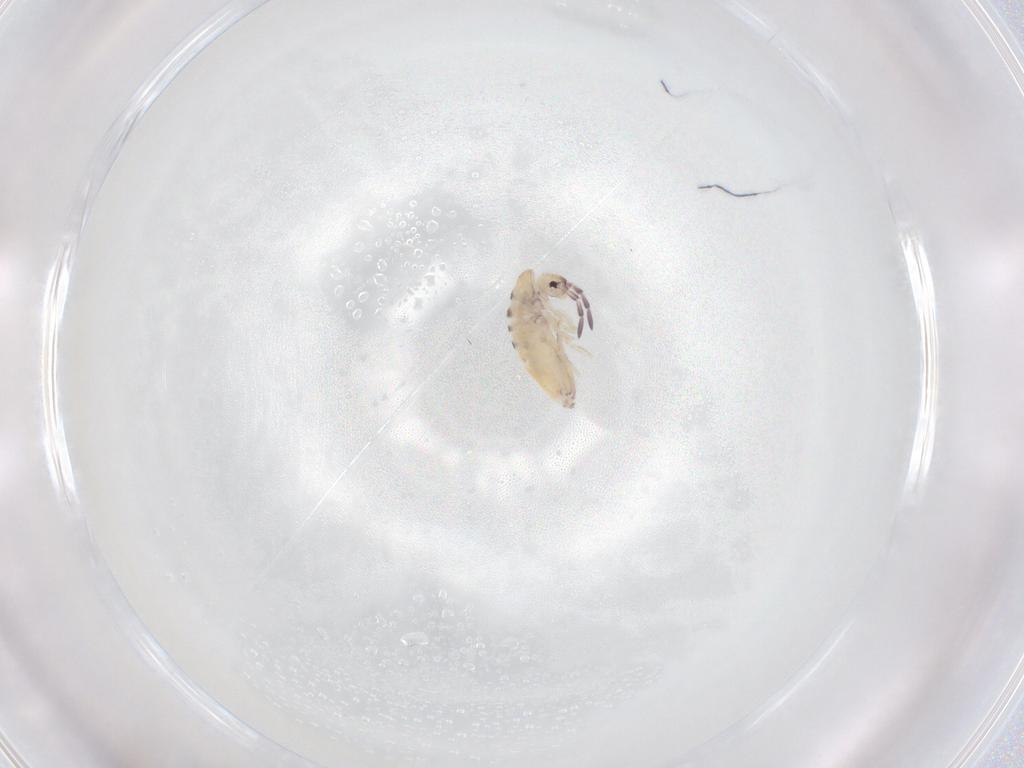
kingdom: Animalia
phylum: Arthropoda
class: Collembola
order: Entomobryomorpha
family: Entomobryidae
